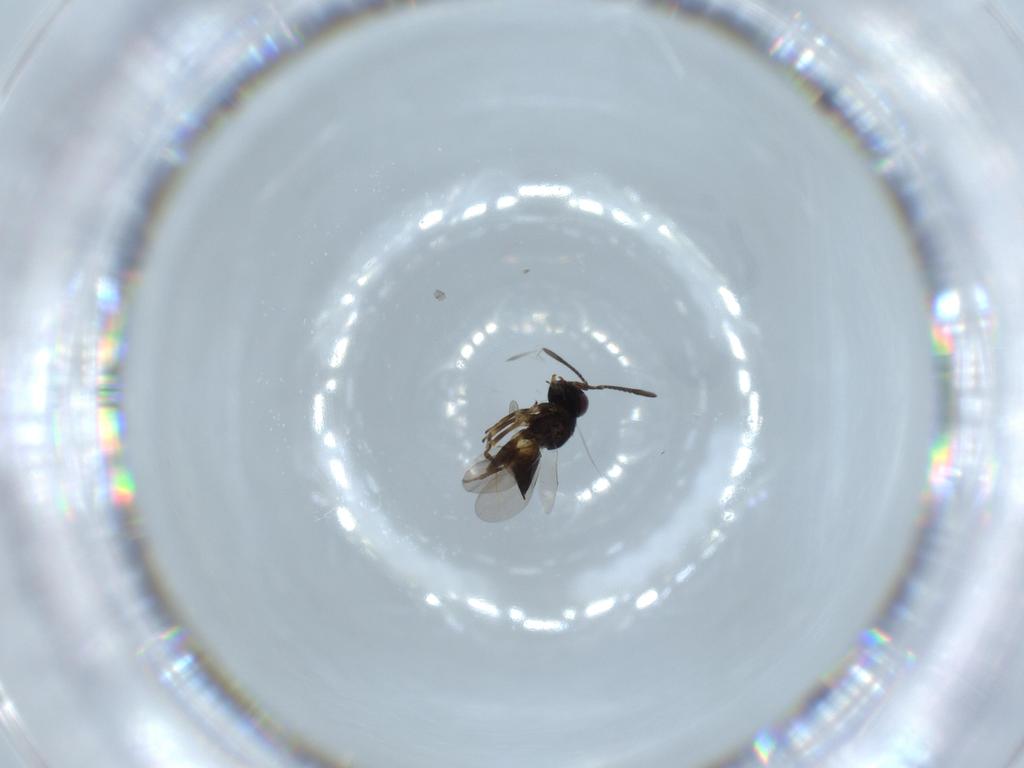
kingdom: Animalia
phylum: Arthropoda
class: Insecta
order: Hymenoptera
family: Encyrtidae
